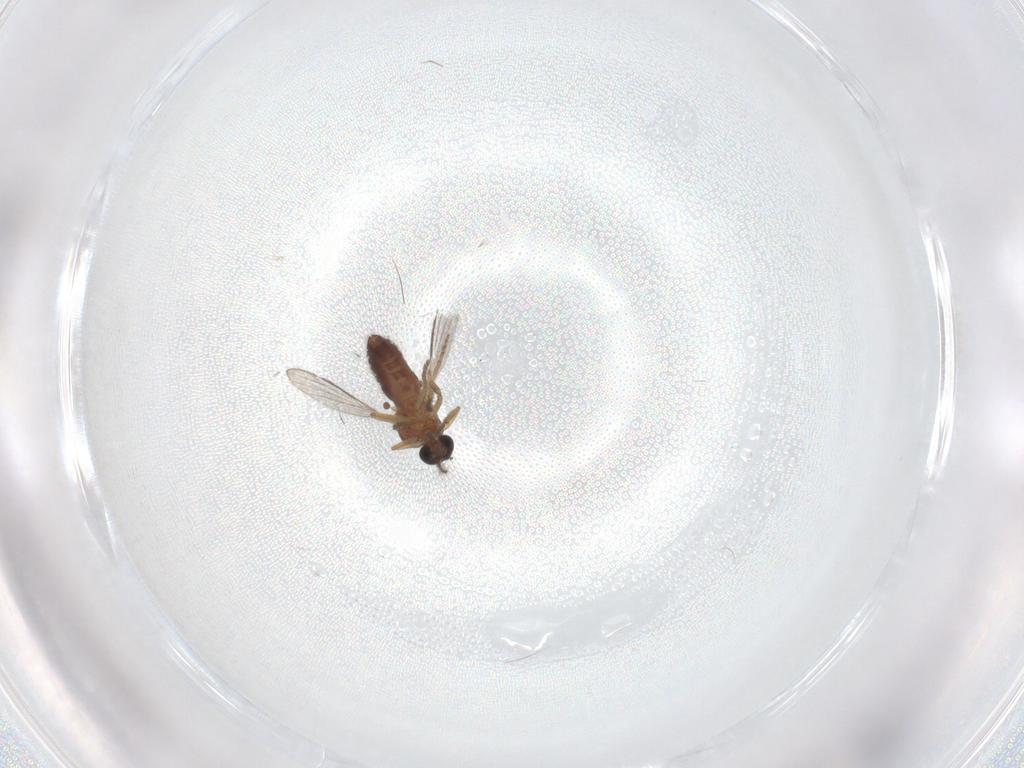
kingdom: Animalia
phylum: Arthropoda
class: Insecta
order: Diptera
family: Ceratopogonidae
